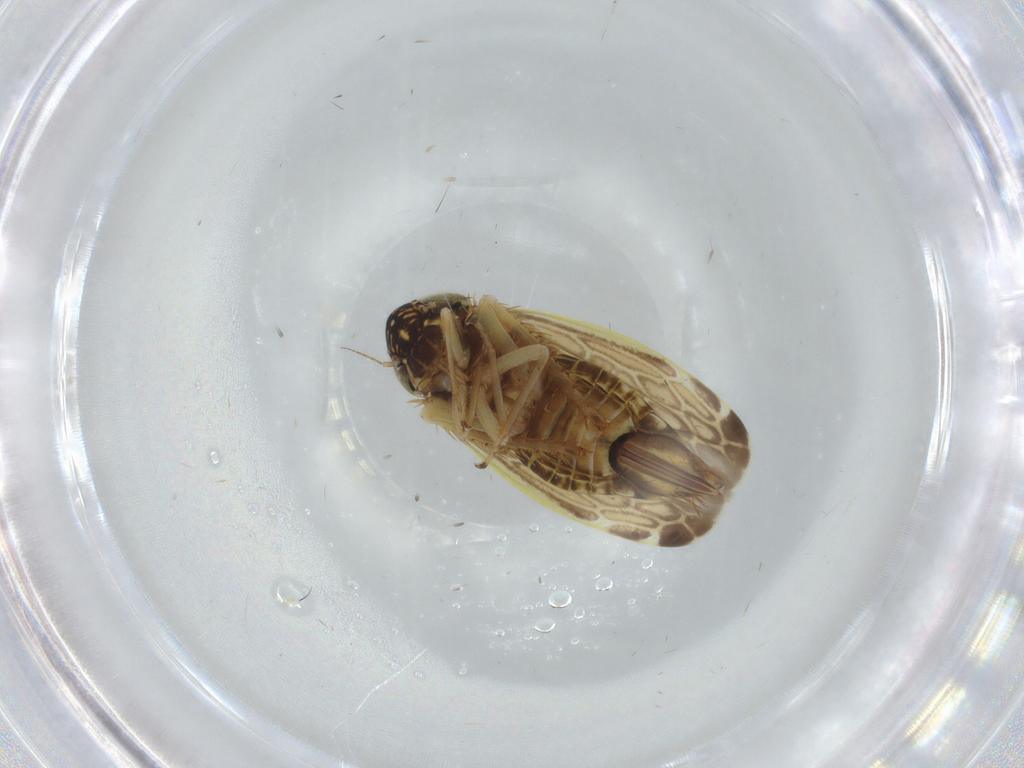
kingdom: Animalia
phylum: Arthropoda
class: Insecta
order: Hemiptera
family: Cicadellidae
